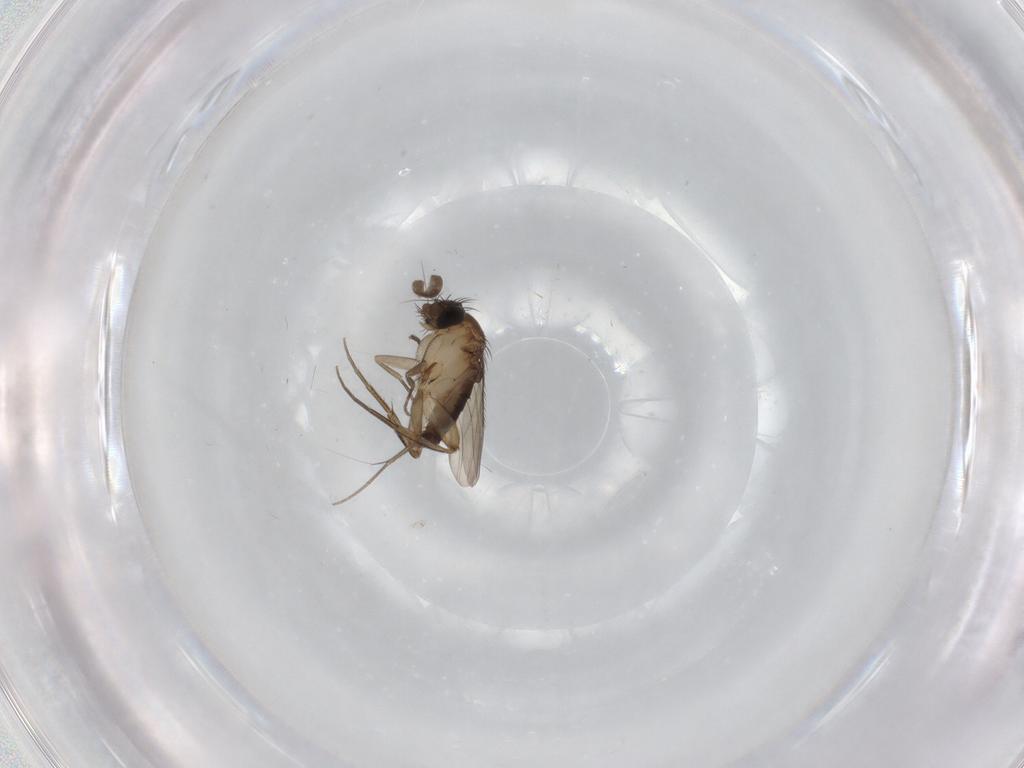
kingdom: Animalia
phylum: Arthropoda
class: Insecta
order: Diptera
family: Phoridae
